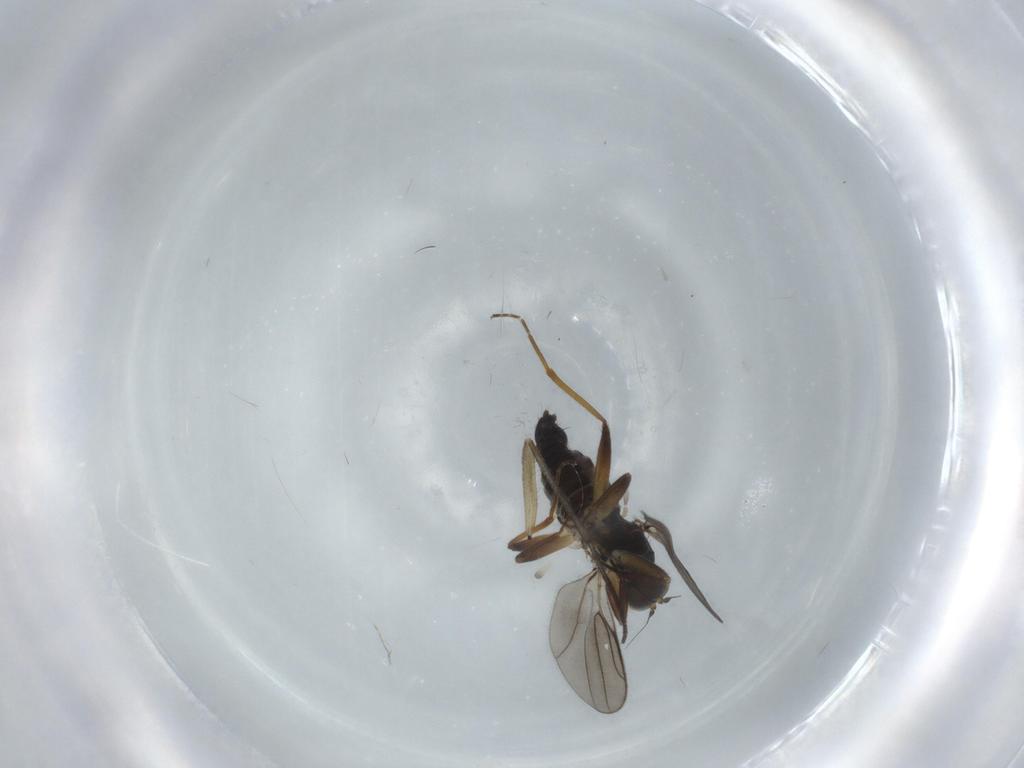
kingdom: Animalia
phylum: Arthropoda
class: Insecta
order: Diptera
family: Hybotidae
